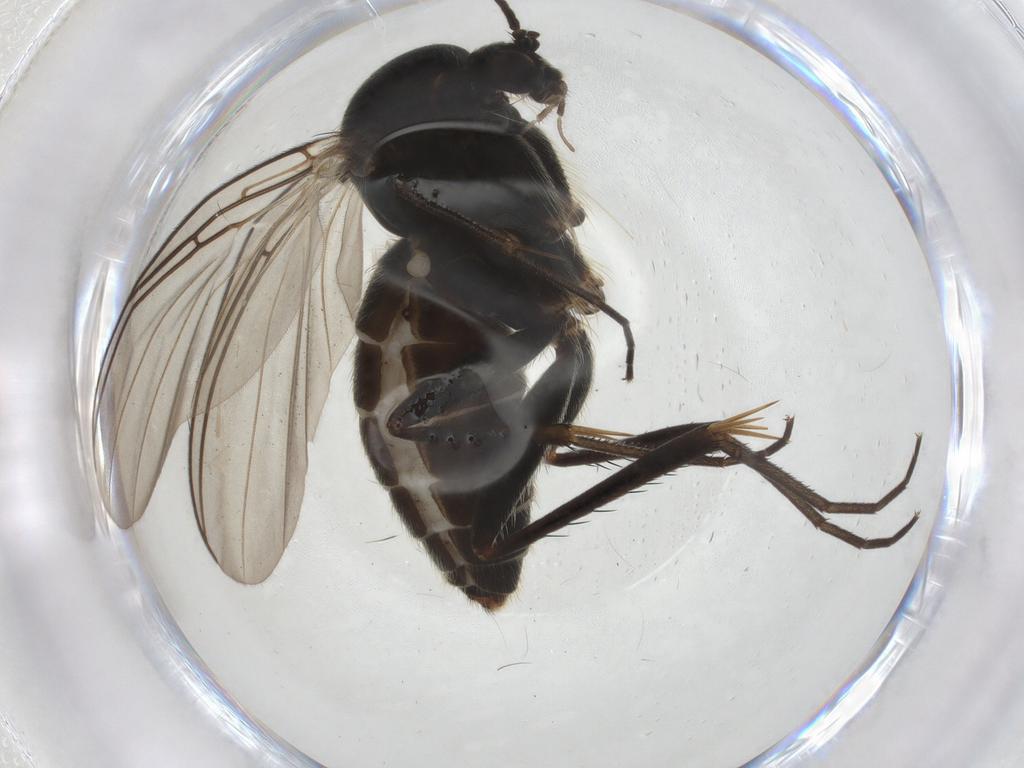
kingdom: Animalia
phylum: Arthropoda
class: Insecta
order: Diptera
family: Mycetophilidae
